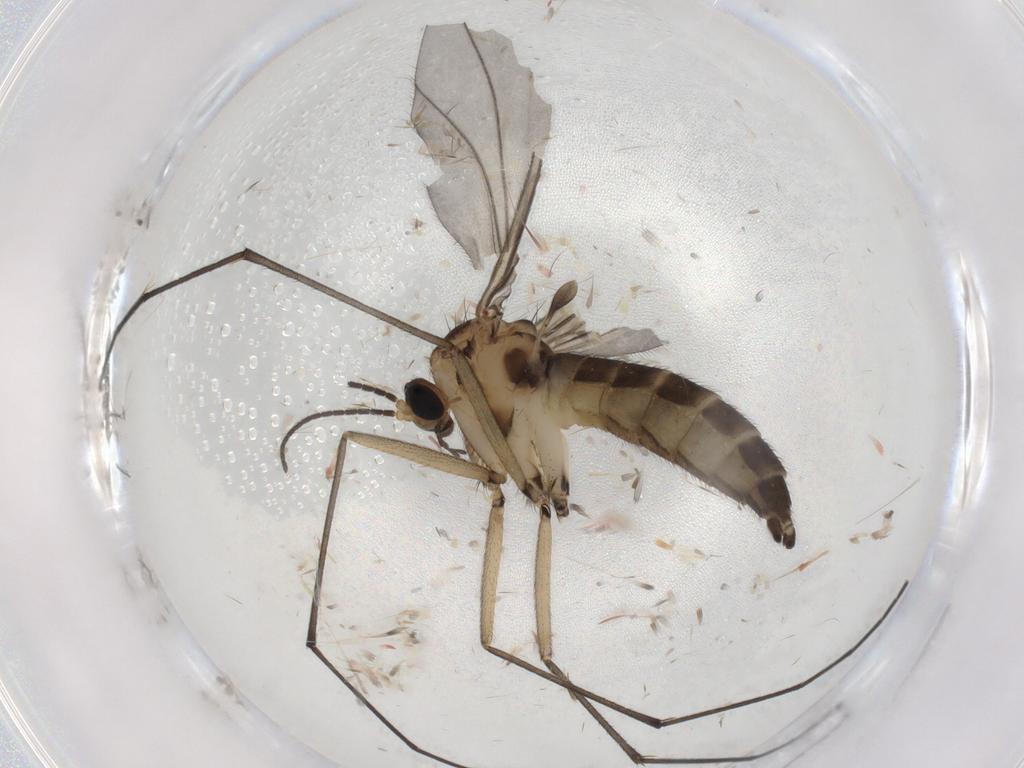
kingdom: Animalia
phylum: Arthropoda
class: Insecta
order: Diptera
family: Sciaridae
